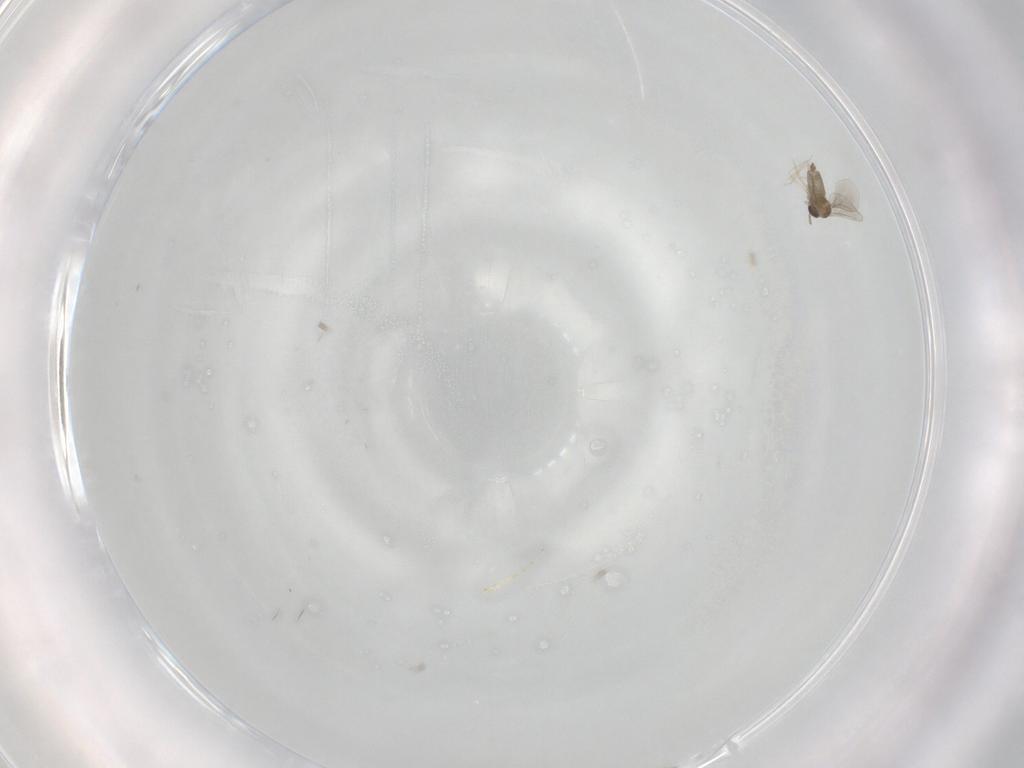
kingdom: Animalia
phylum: Arthropoda
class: Insecta
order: Diptera
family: Cecidomyiidae
